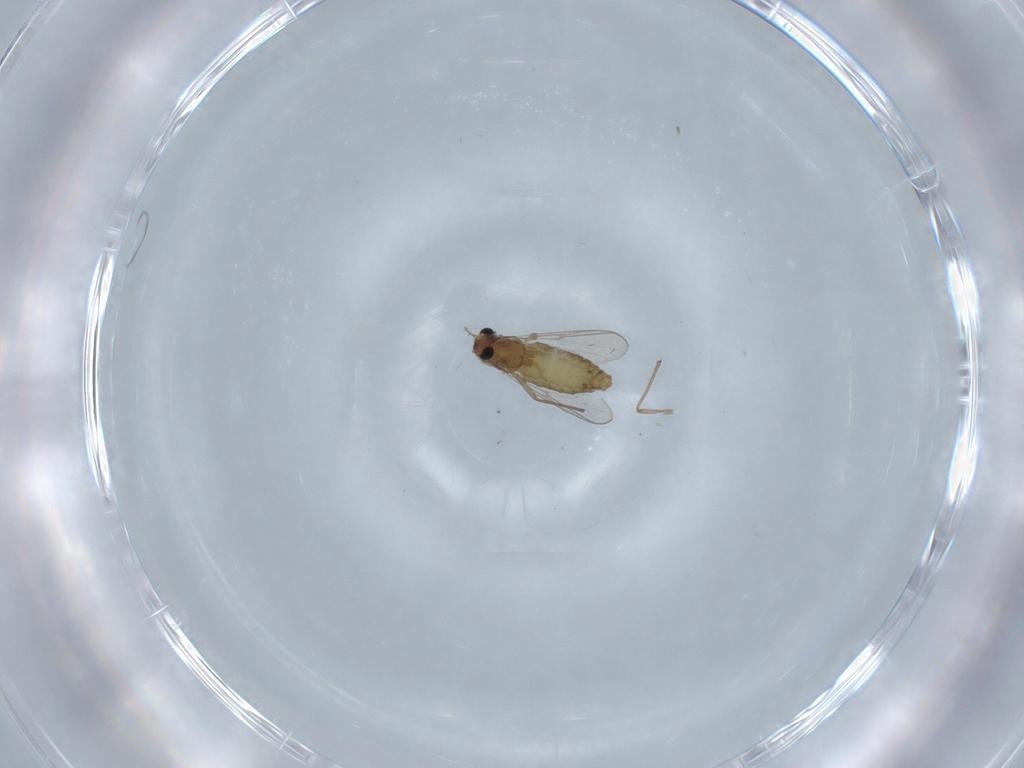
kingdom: Animalia
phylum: Arthropoda
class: Insecta
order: Diptera
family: Chironomidae
